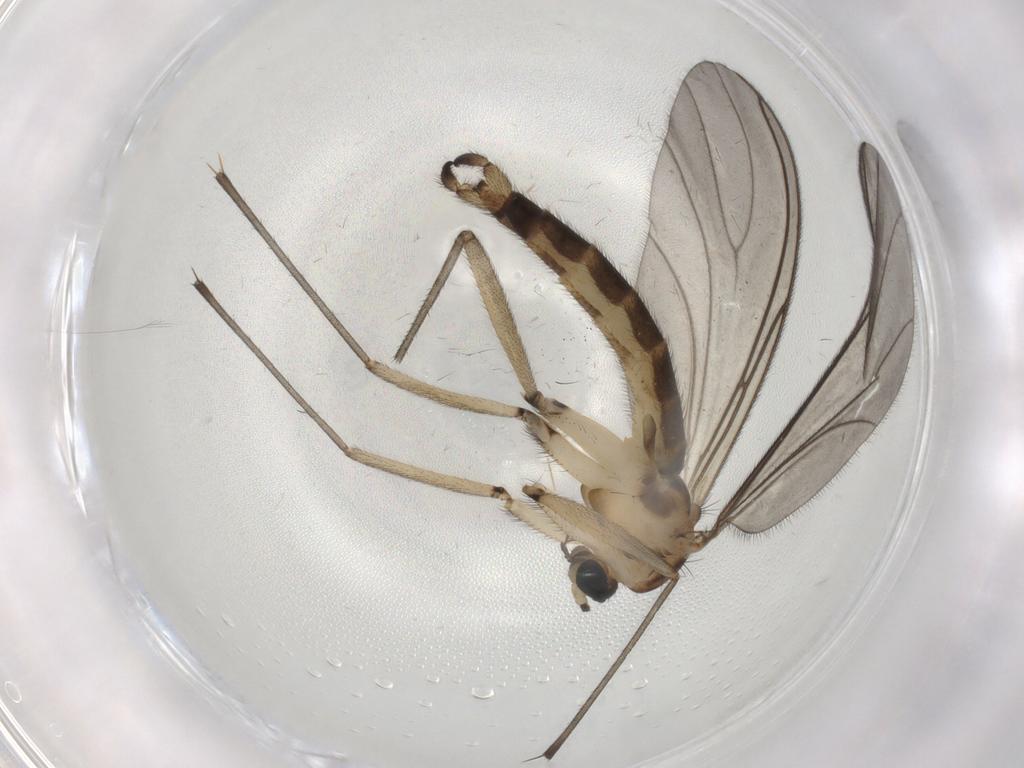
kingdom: Animalia
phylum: Arthropoda
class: Insecta
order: Diptera
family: Sciaridae
